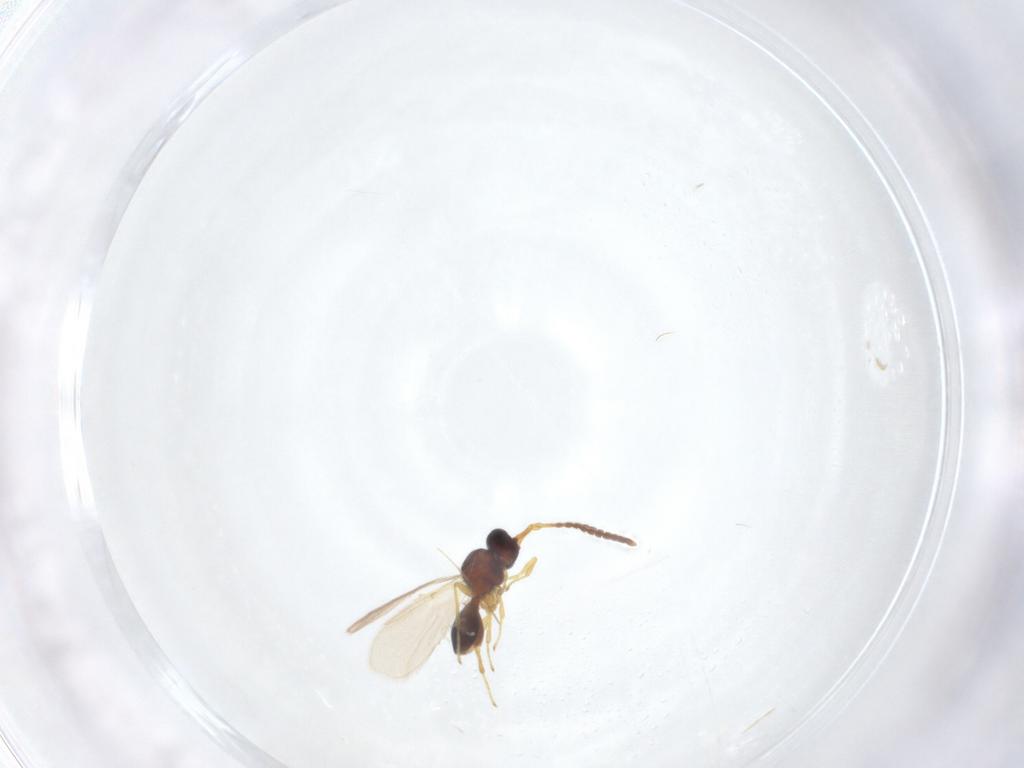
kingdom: Animalia
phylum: Arthropoda
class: Insecta
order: Hymenoptera
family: Diapriidae
